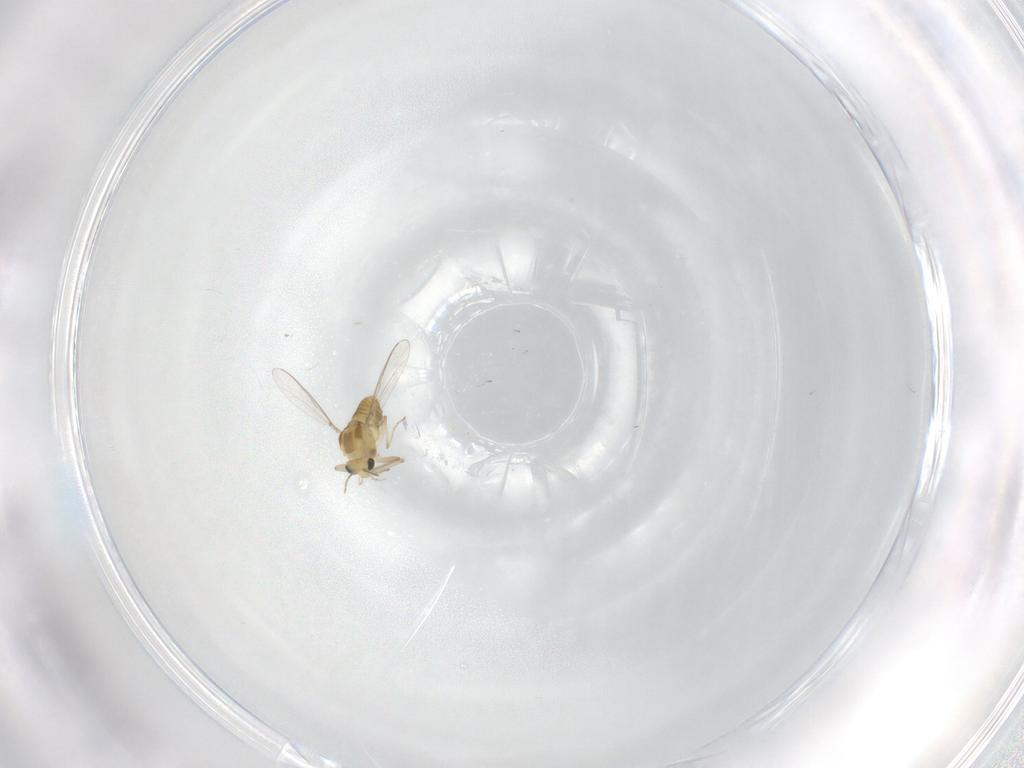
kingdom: Animalia
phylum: Arthropoda
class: Insecta
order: Diptera
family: Chironomidae
